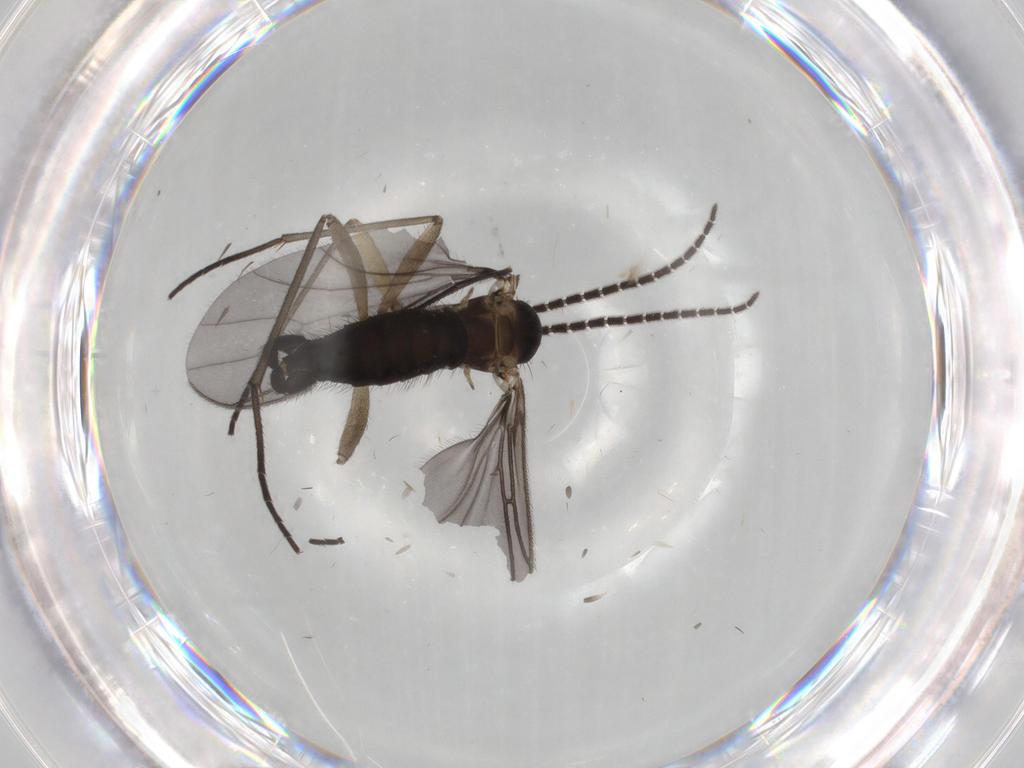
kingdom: Animalia
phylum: Arthropoda
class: Insecta
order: Diptera
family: Sciaridae
